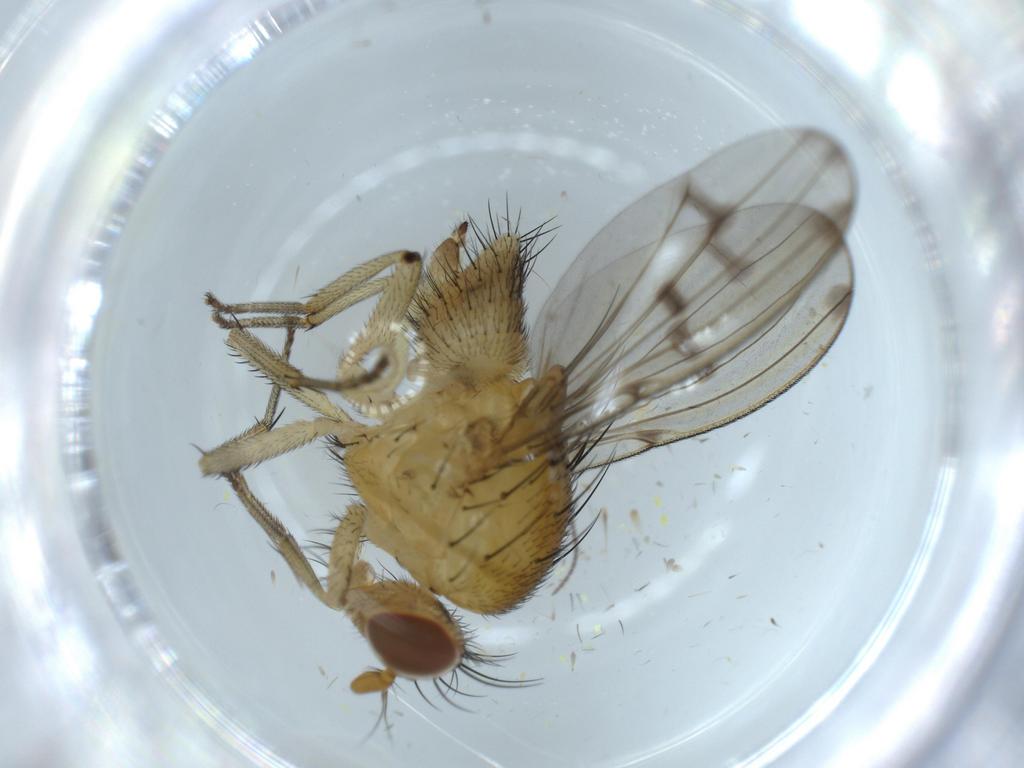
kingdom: Animalia
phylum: Arthropoda
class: Insecta
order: Diptera
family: Sciaridae
